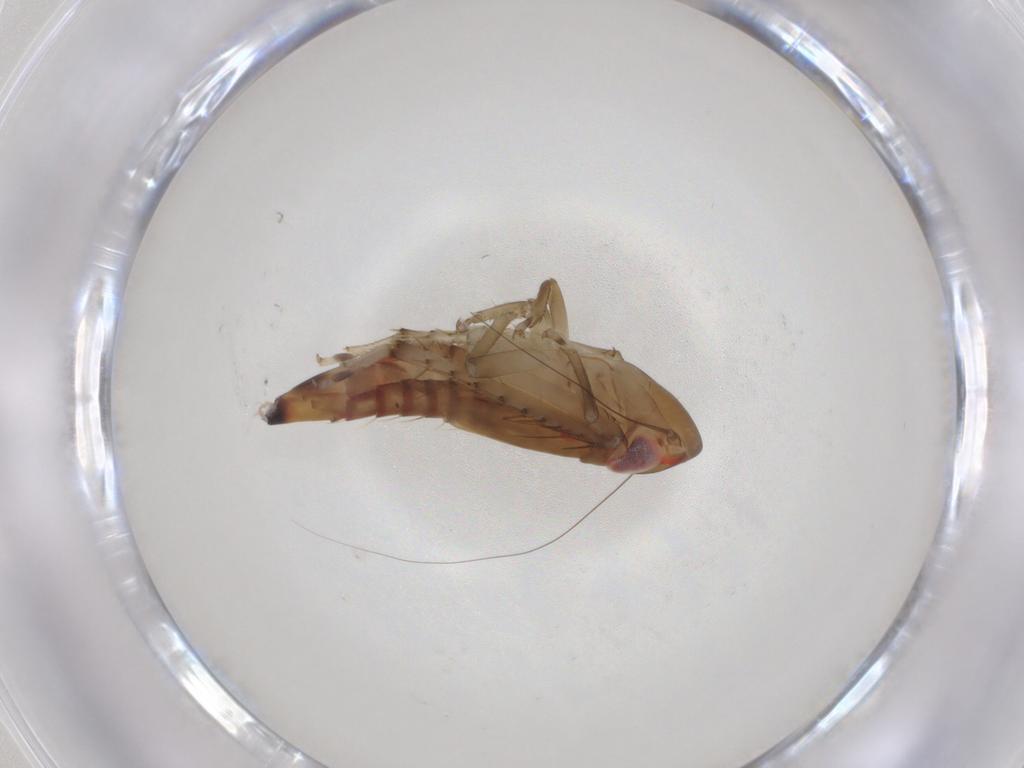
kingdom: Animalia
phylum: Arthropoda
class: Insecta
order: Hemiptera
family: Cicadellidae
